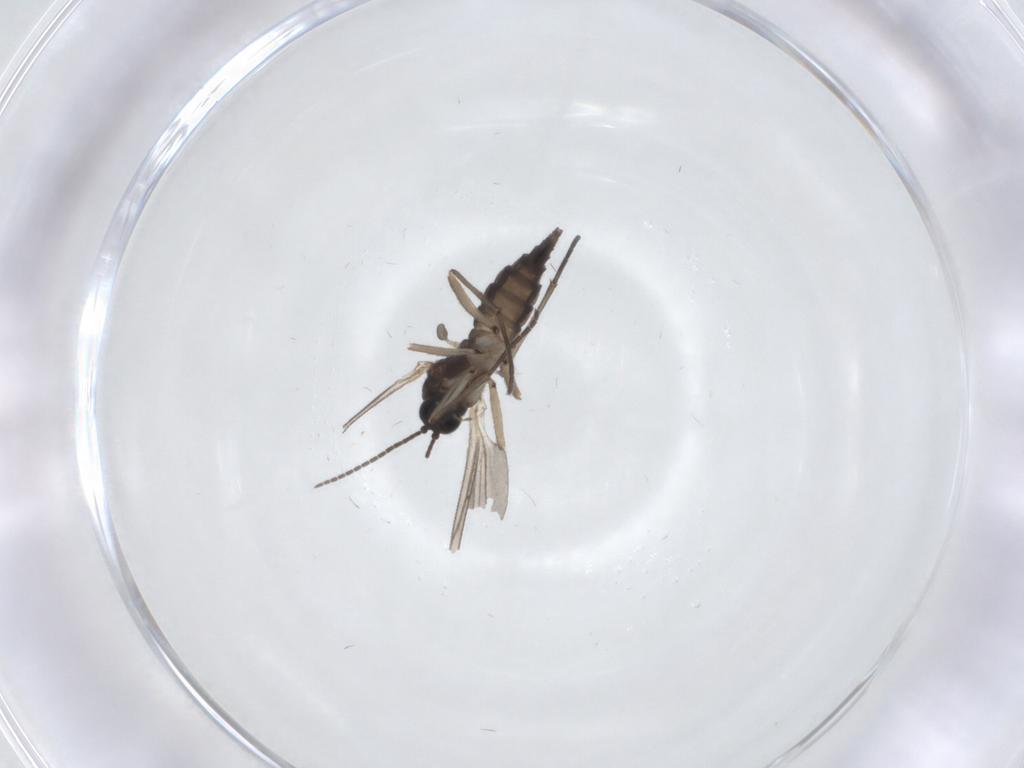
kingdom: Animalia
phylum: Arthropoda
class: Insecta
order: Diptera
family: Sciaridae
